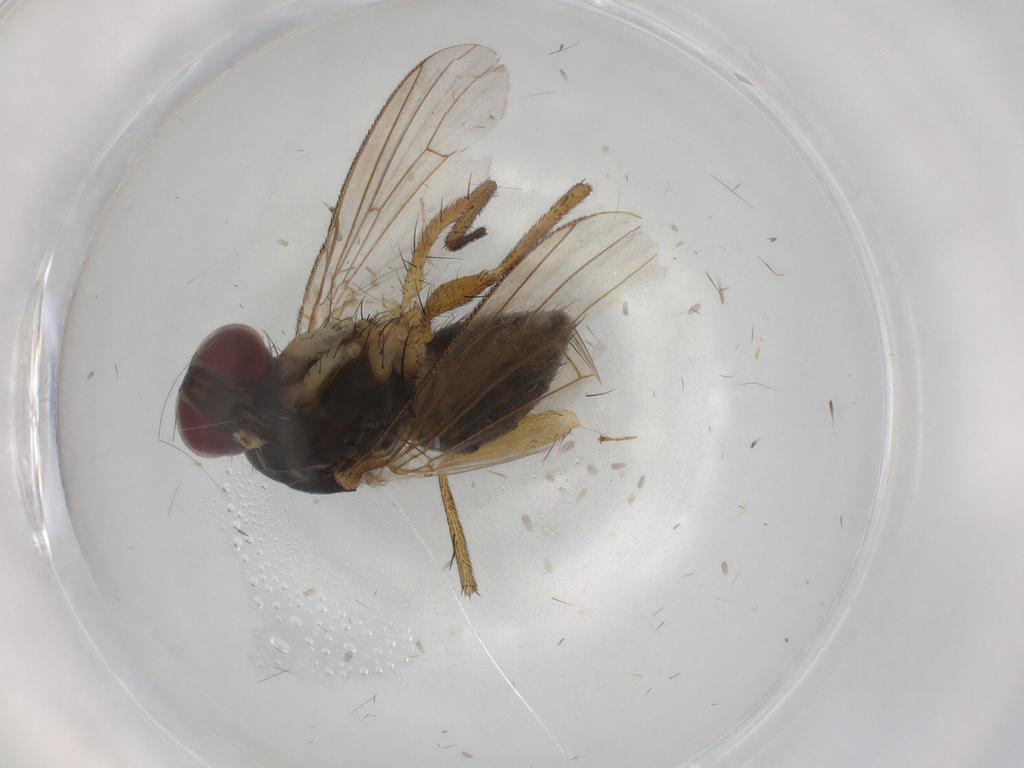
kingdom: Animalia
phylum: Arthropoda
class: Insecta
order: Diptera
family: Muscidae
